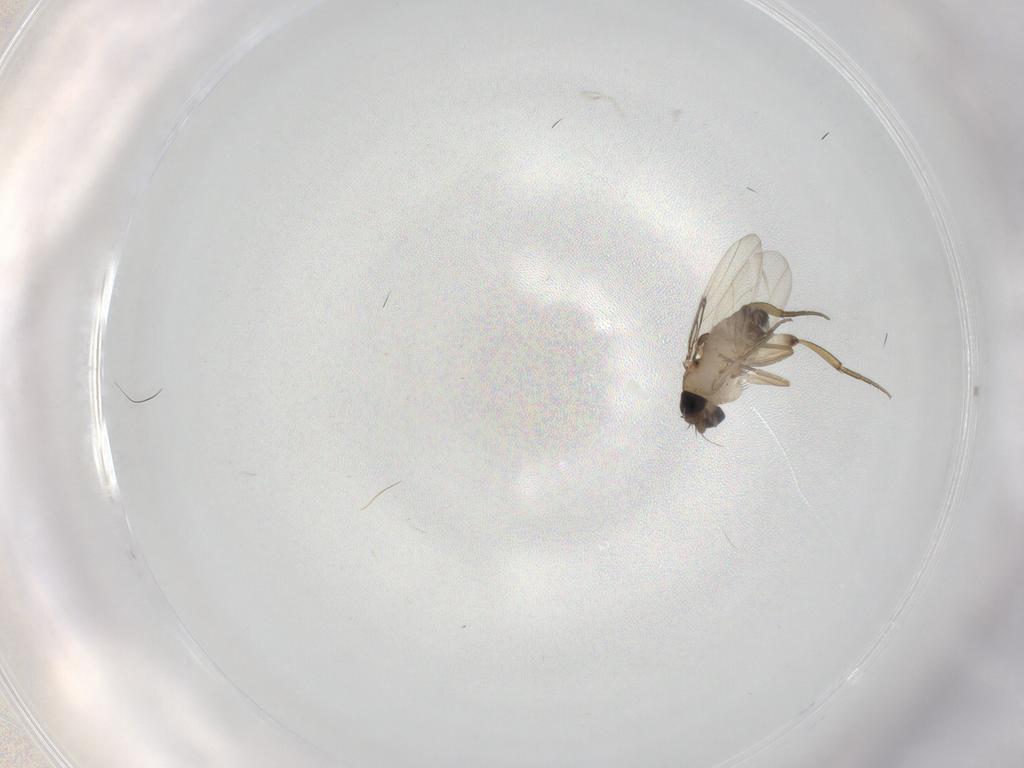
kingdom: Animalia
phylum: Arthropoda
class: Insecta
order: Diptera
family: Phoridae
